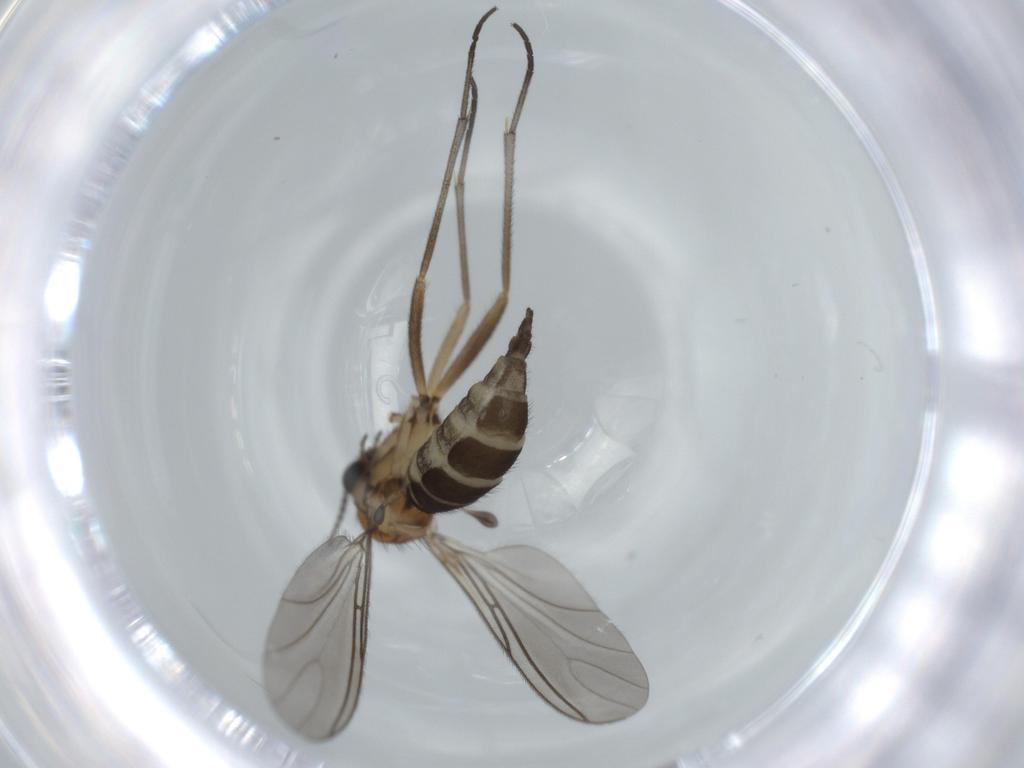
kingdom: Animalia
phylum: Arthropoda
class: Insecta
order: Diptera
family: Sciaridae
